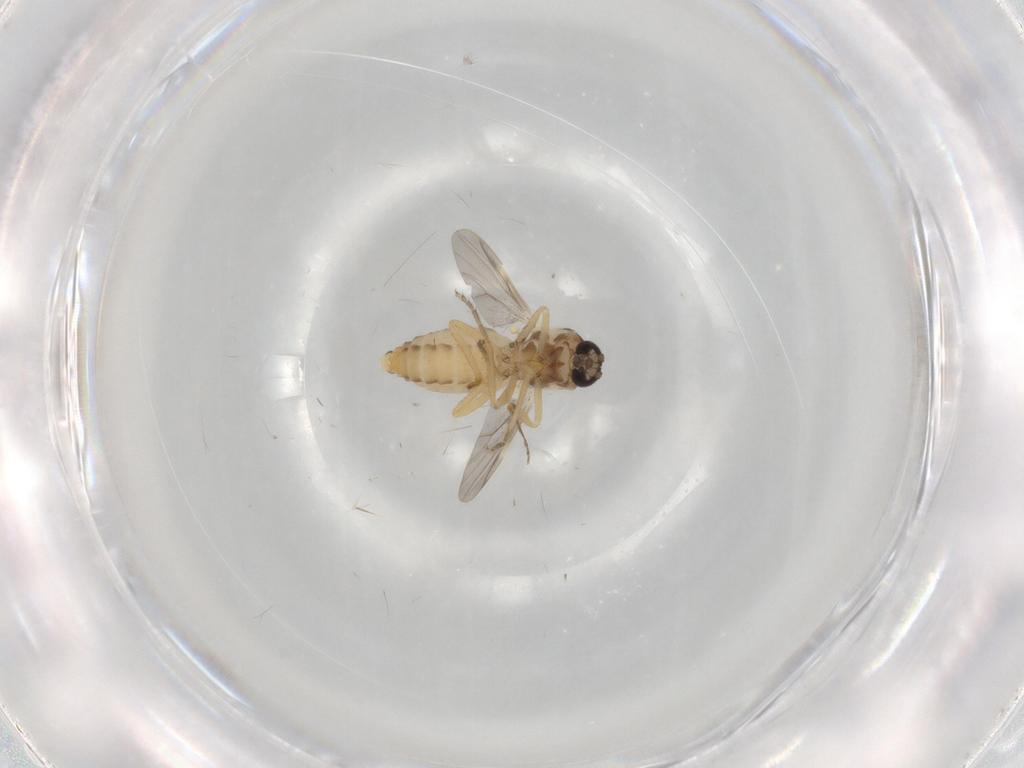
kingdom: Animalia
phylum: Arthropoda
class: Insecta
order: Diptera
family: Ceratopogonidae
